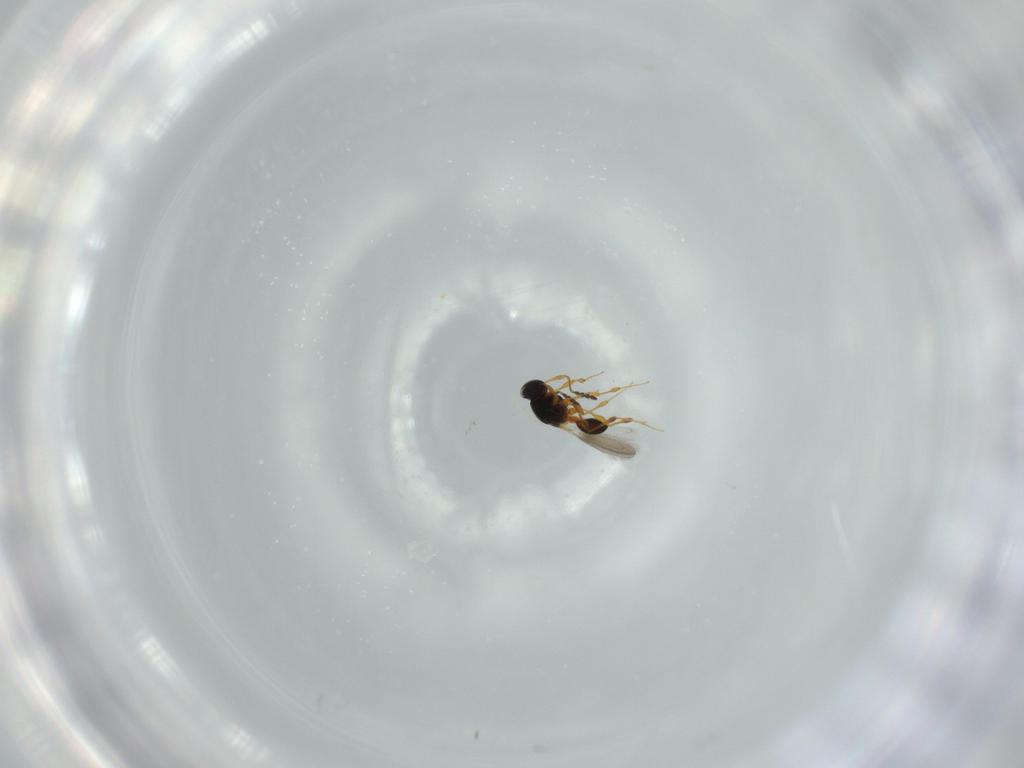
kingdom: Animalia
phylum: Arthropoda
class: Insecta
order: Hymenoptera
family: Platygastridae
